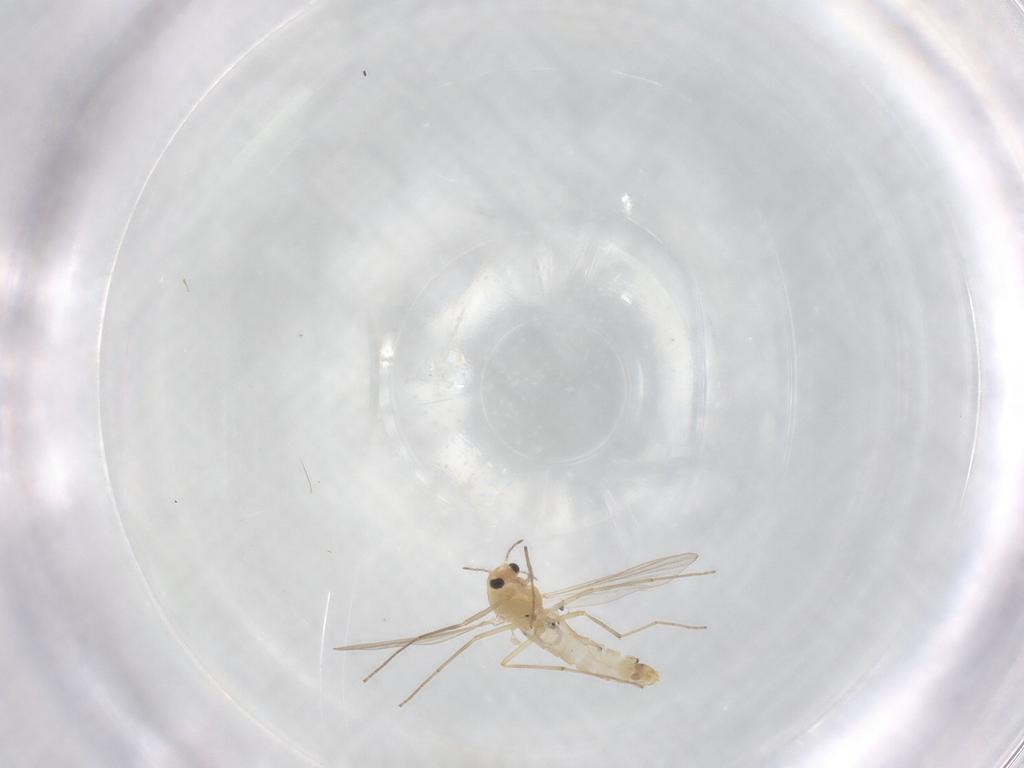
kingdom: Animalia
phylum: Arthropoda
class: Insecta
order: Diptera
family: Chironomidae
